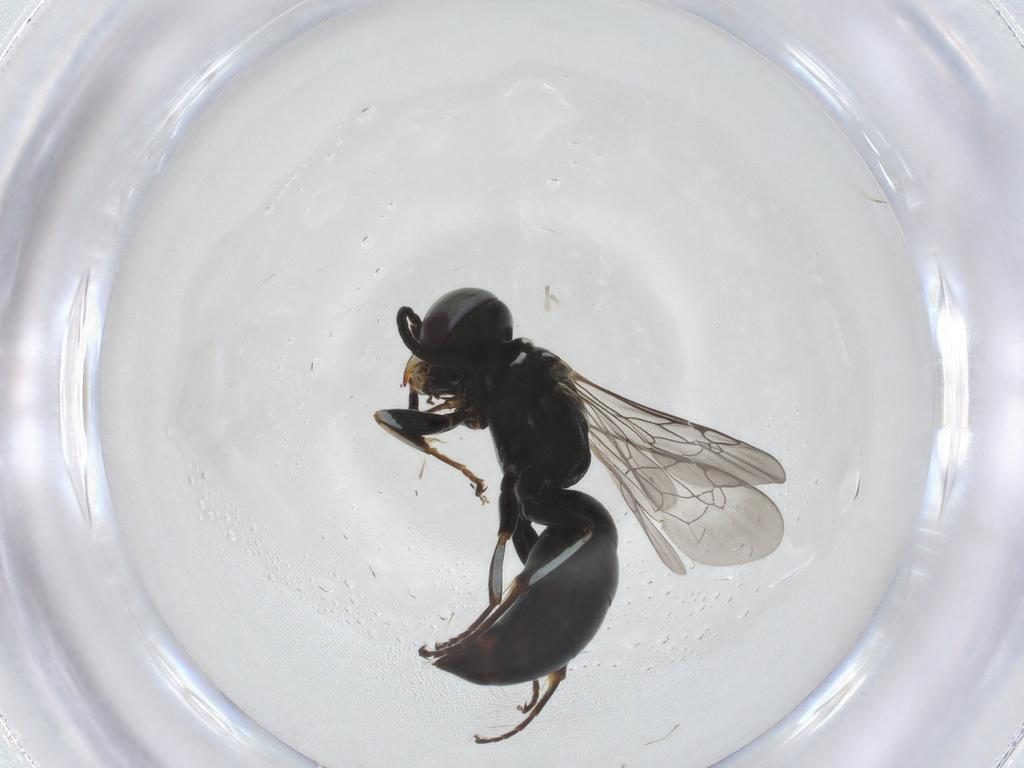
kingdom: Animalia
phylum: Arthropoda
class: Insecta
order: Hymenoptera
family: Crabronidae
